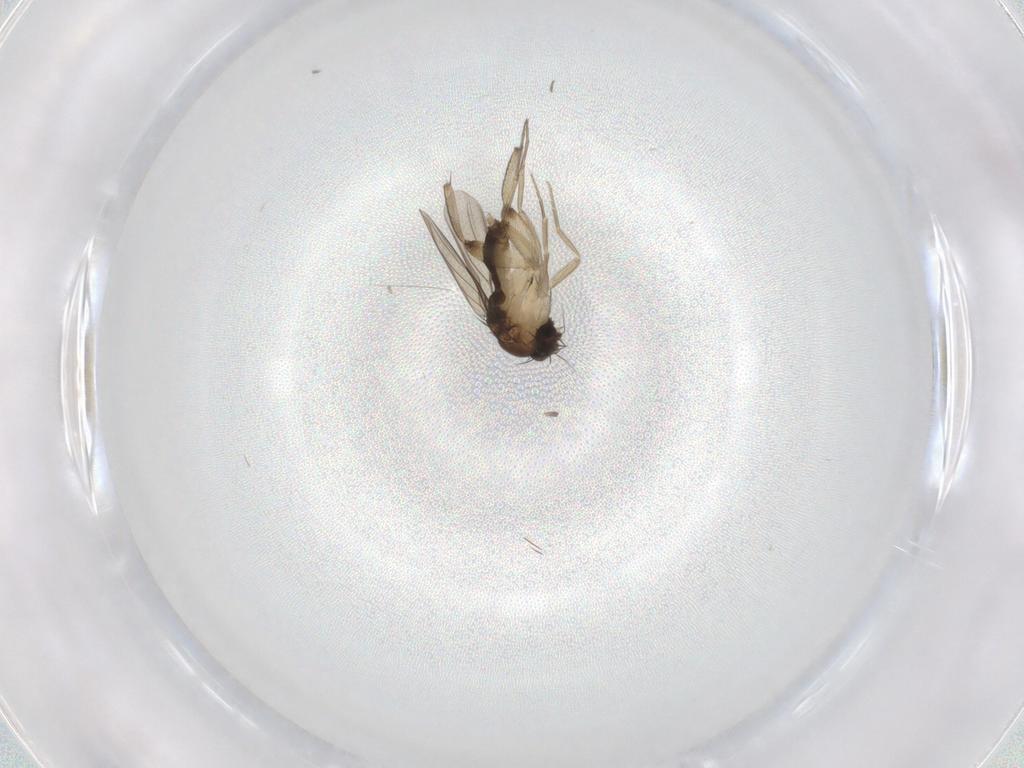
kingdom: Animalia
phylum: Arthropoda
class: Insecta
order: Diptera
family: Phoridae
